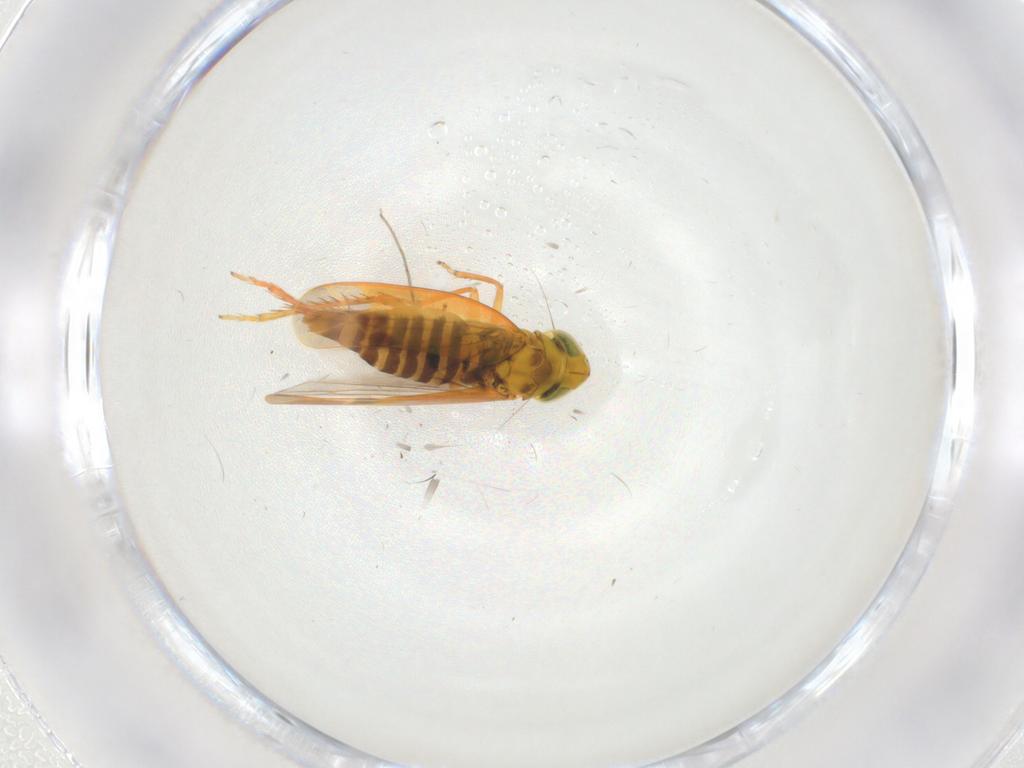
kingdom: Animalia
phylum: Arthropoda
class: Insecta
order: Hemiptera
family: Cicadellidae
